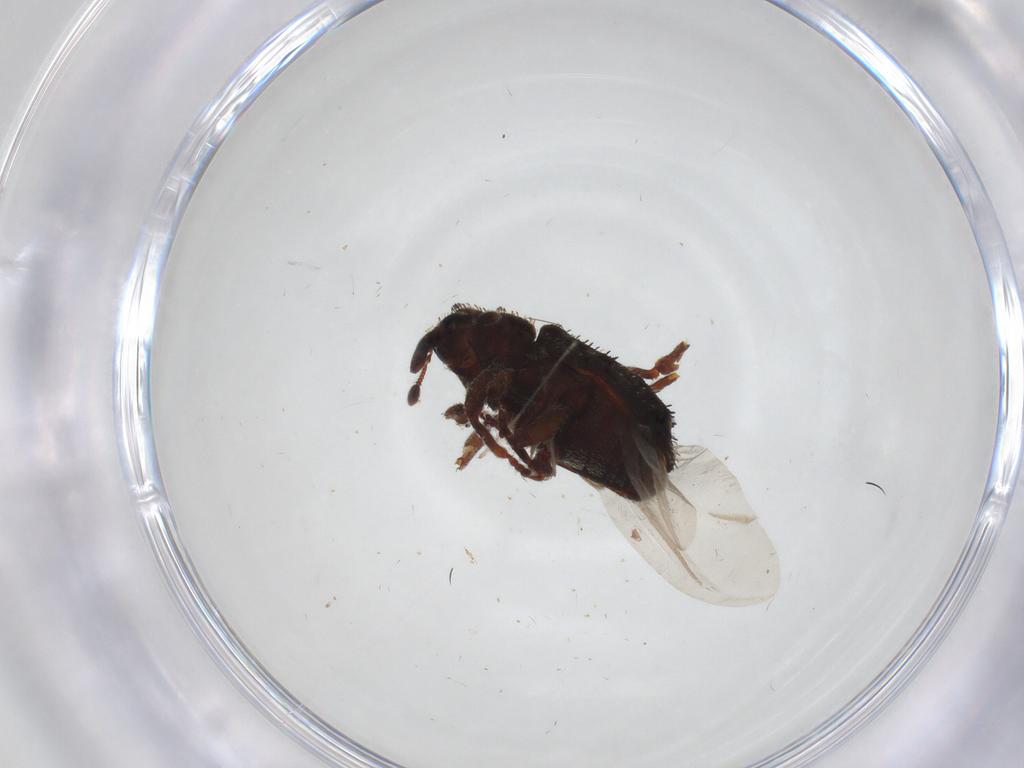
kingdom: Animalia
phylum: Arthropoda
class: Insecta
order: Coleoptera
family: Curculionidae
